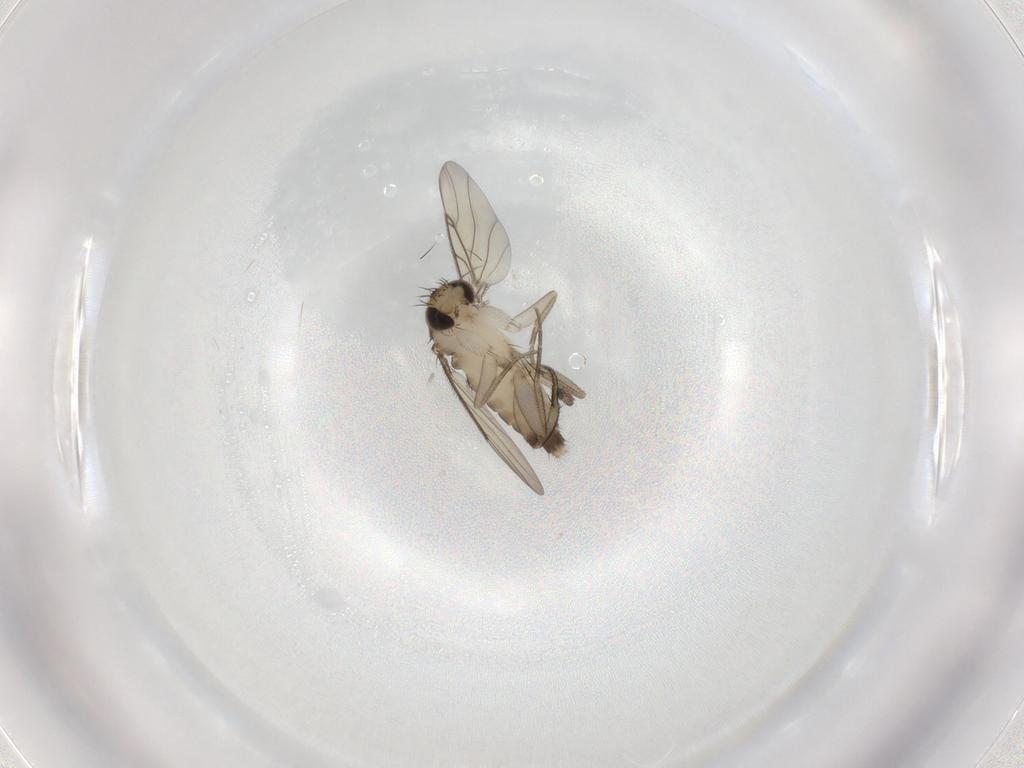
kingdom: Animalia
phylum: Arthropoda
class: Insecta
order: Diptera
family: Phoridae
